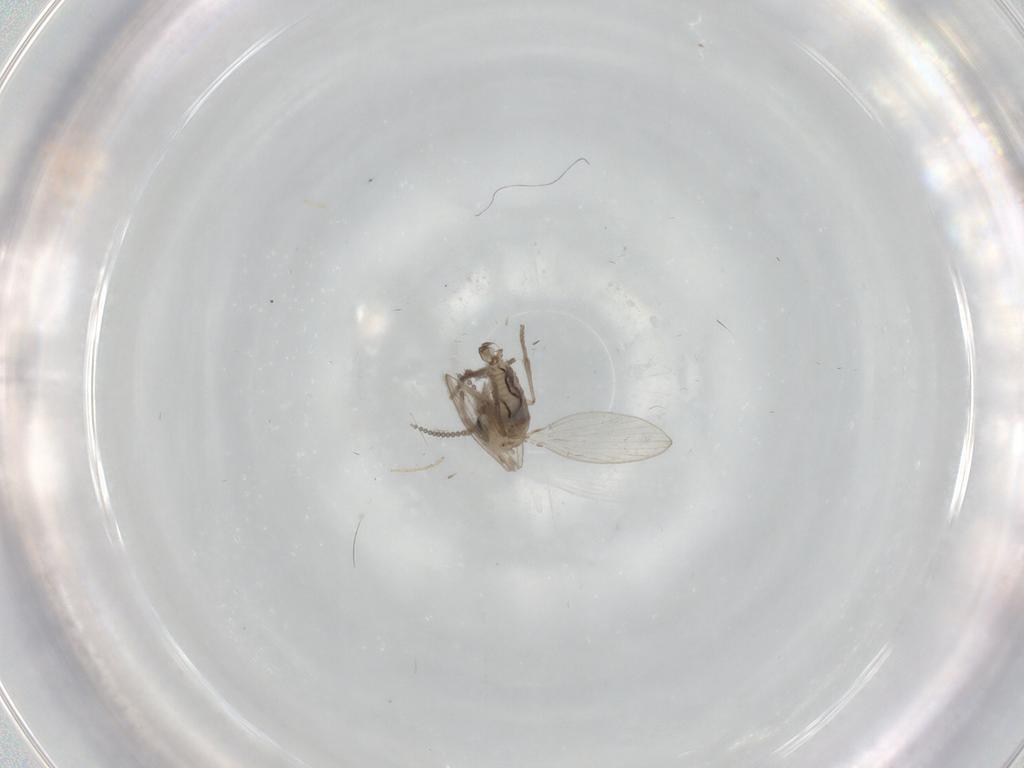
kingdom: Animalia
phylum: Arthropoda
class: Insecta
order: Diptera
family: Psychodidae
